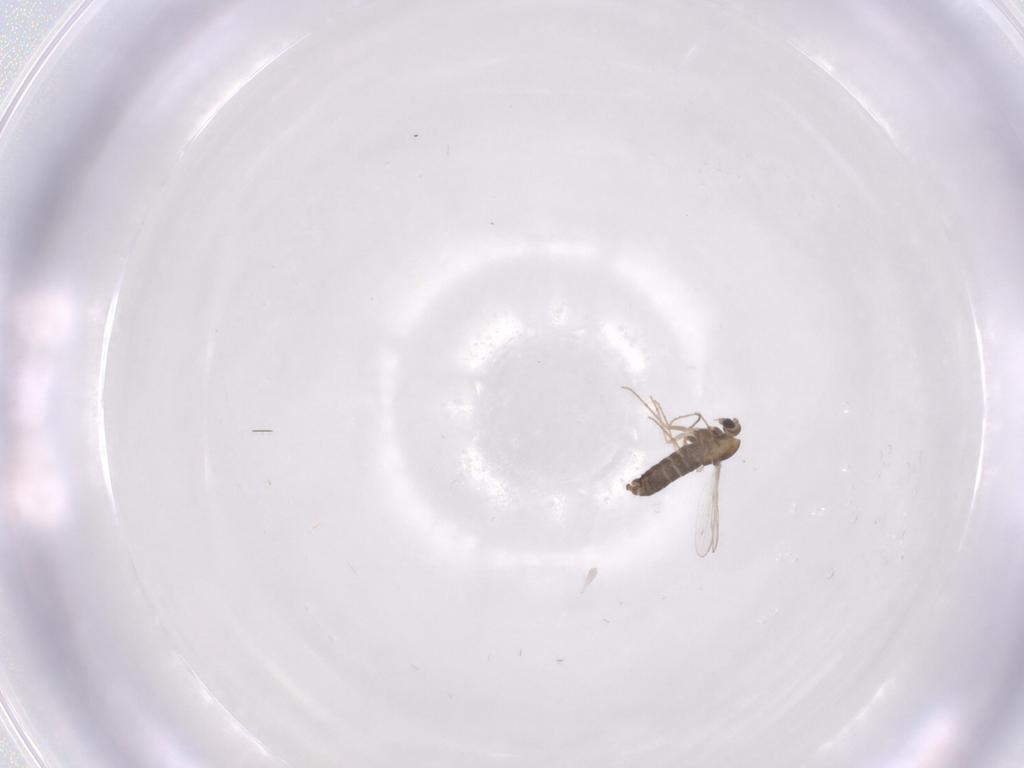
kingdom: Animalia
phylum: Arthropoda
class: Insecta
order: Diptera
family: Chironomidae
